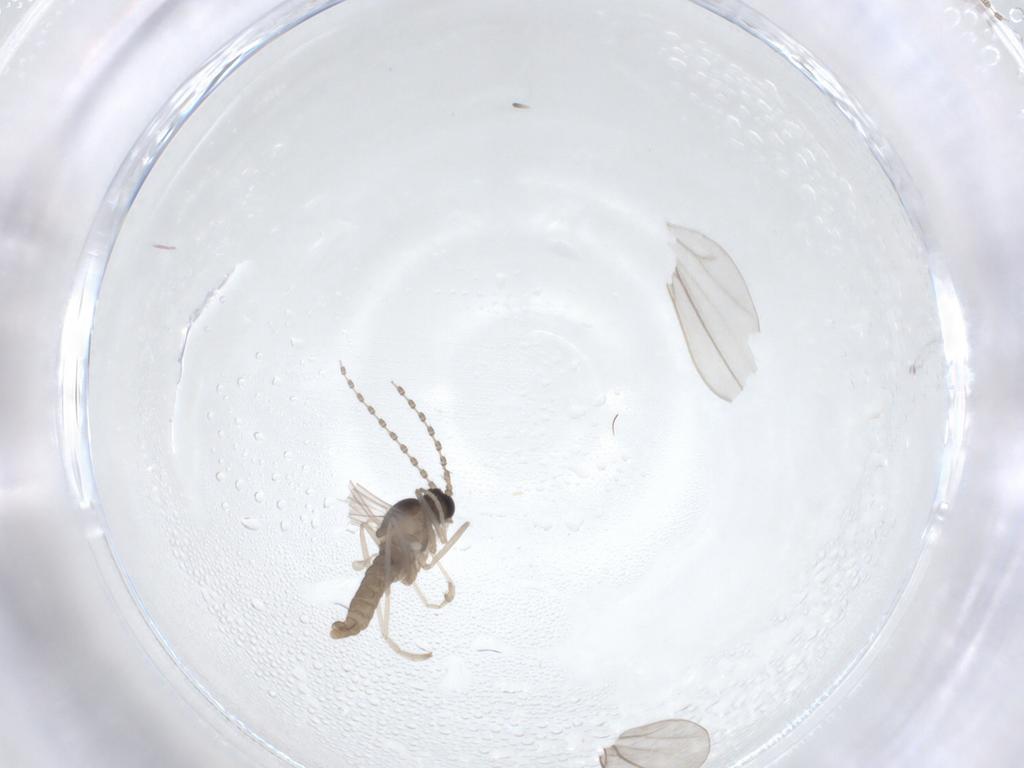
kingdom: Animalia
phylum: Arthropoda
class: Insecta
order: Diptera
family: Cecidomyiidae
